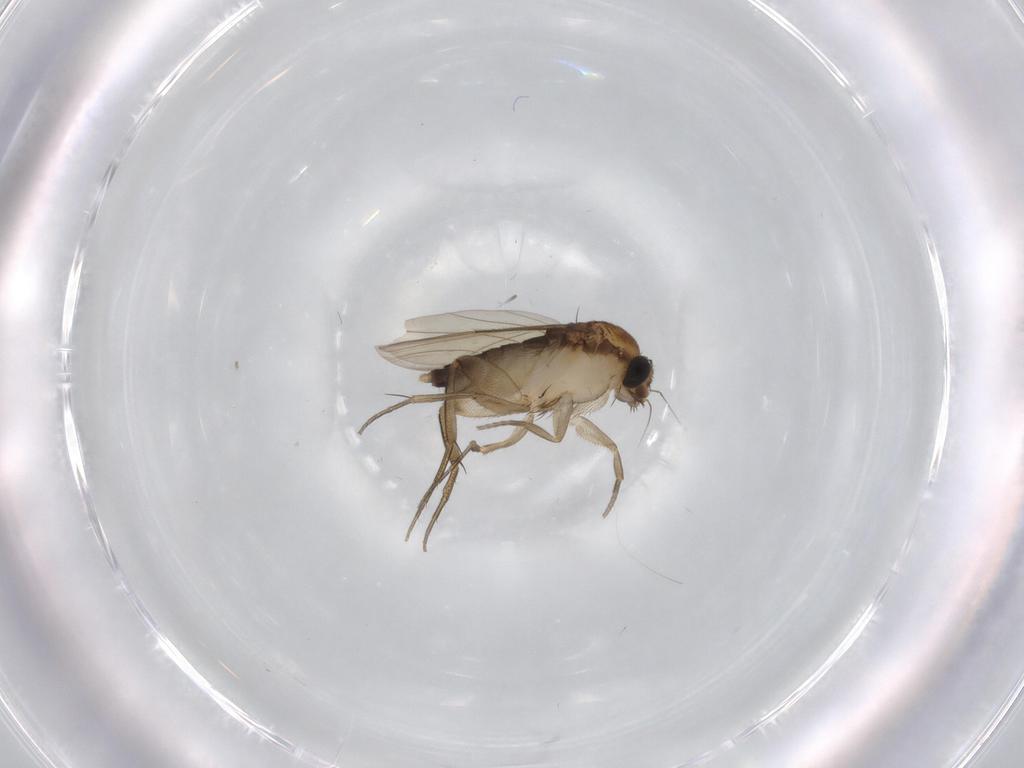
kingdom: Animalia
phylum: Arthropoda
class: Insecta
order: Diptera
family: Phoridae
